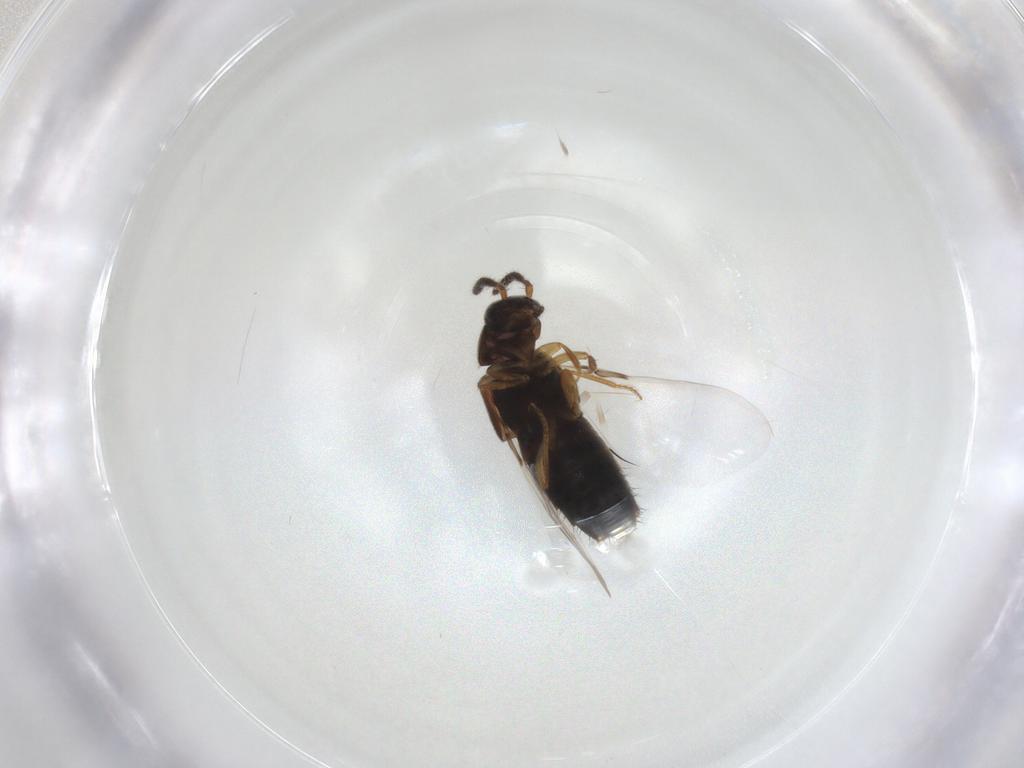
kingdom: Animalia
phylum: Arthropoda
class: Insecta
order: Coleoptera
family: Staphylinidae
